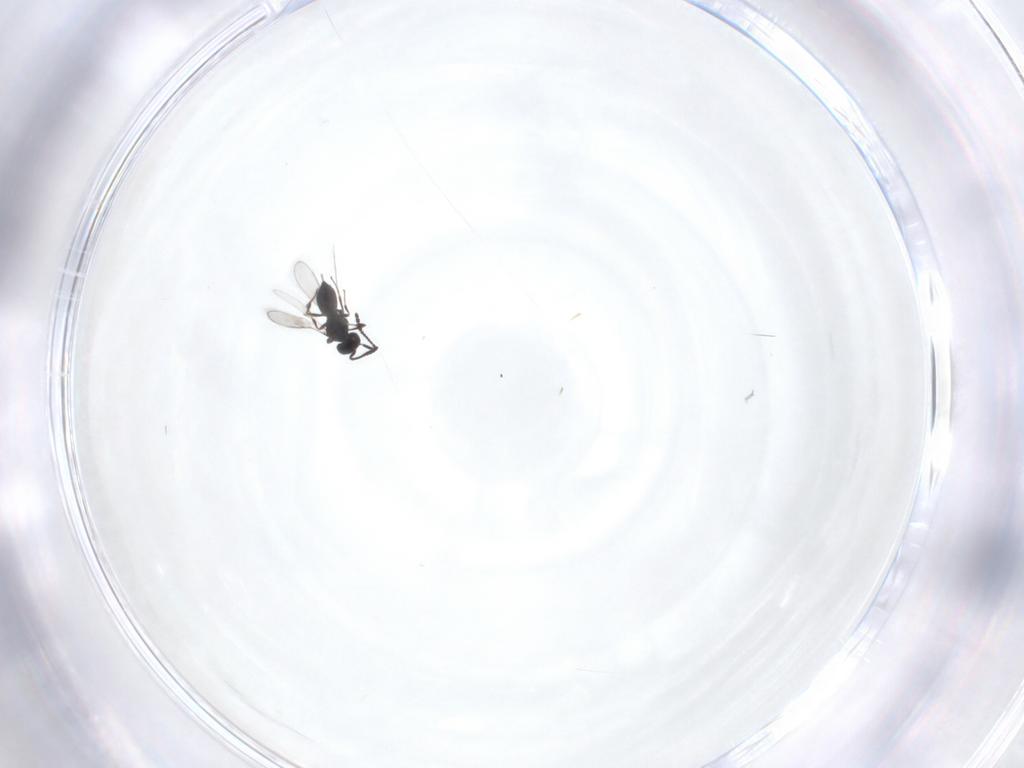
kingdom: Animalia
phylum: Arthropoda
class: Insecta
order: Hymenoptera
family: Scelionidae
